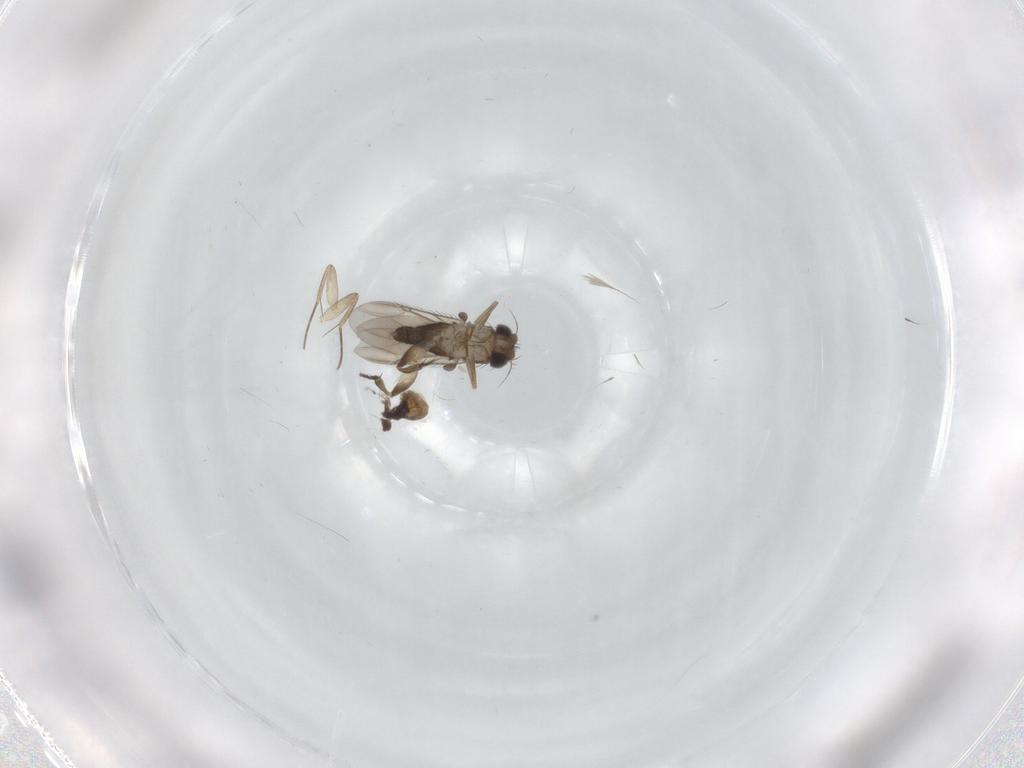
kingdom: Animalia
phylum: Arthropoda
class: Insecta
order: Diptera
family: Phoridae
